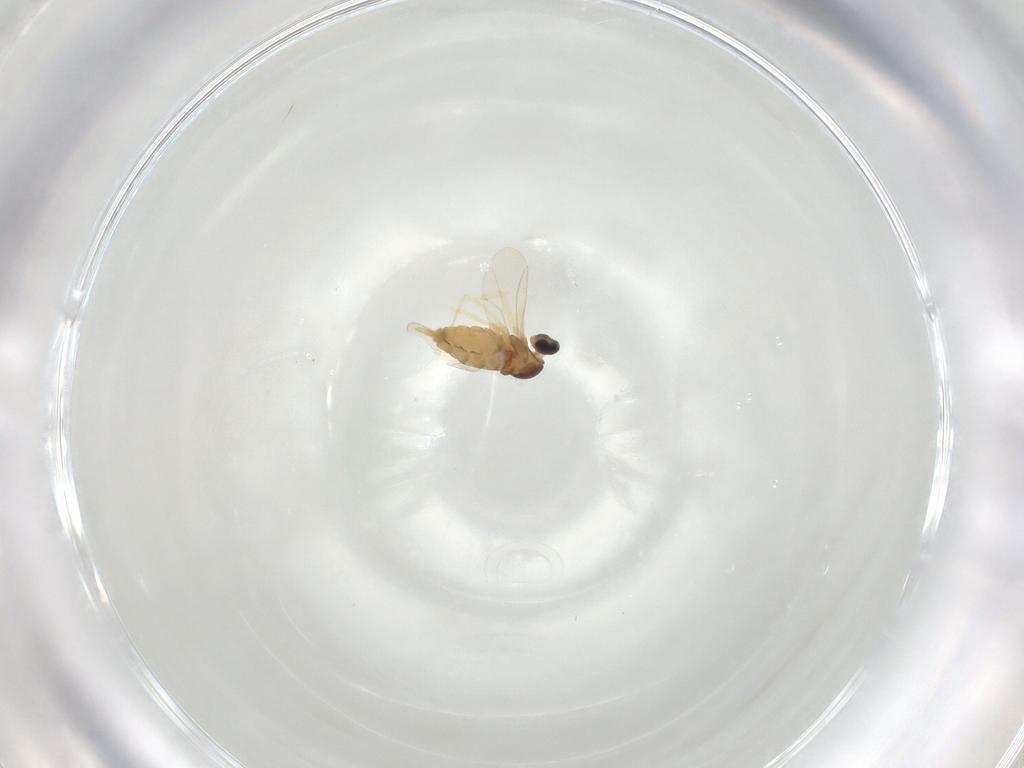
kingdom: Animalia
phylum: Arthropoda
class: Insecta
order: Diptera
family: Cecidomyiidae
